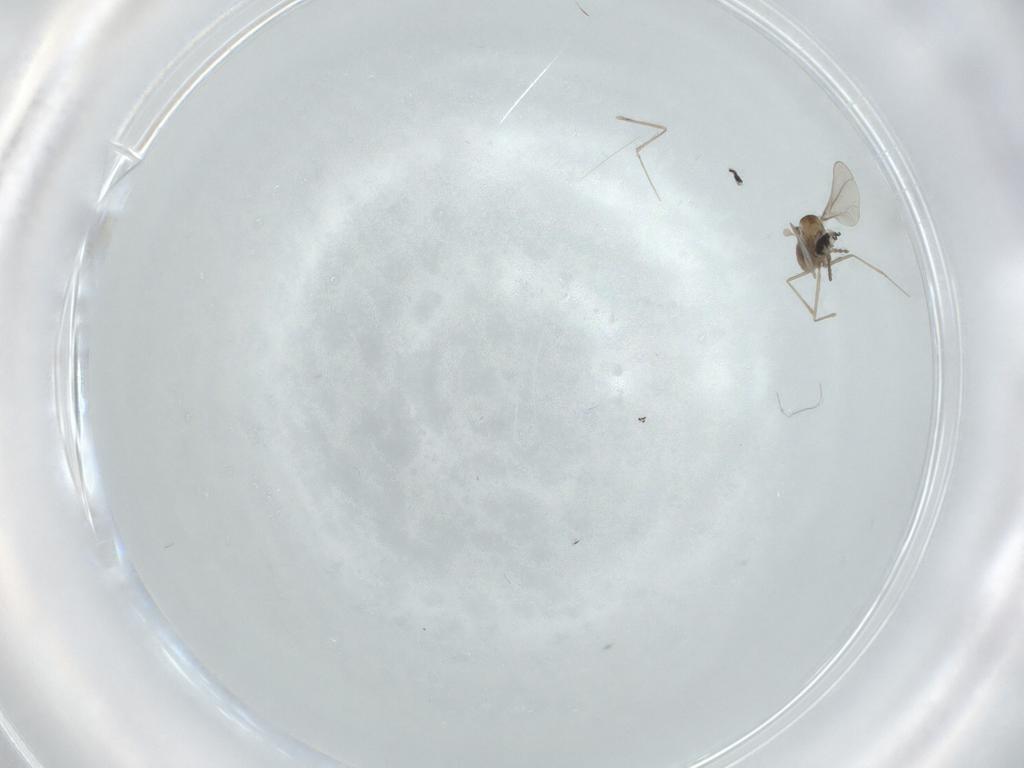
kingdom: Animalia
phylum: Arthropoda
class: Insecta
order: Diptera
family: Cecidomyiidae
